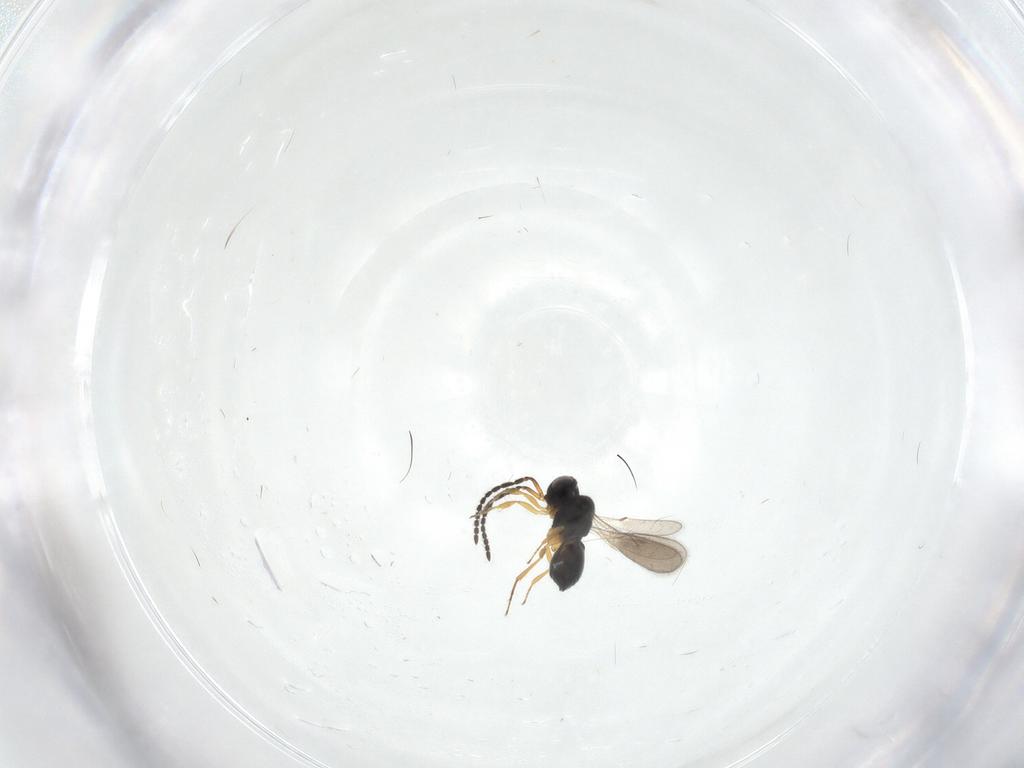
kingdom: Animalia
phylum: Arthropoda
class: Insecta
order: Hymenoptera
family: Scelionidae
